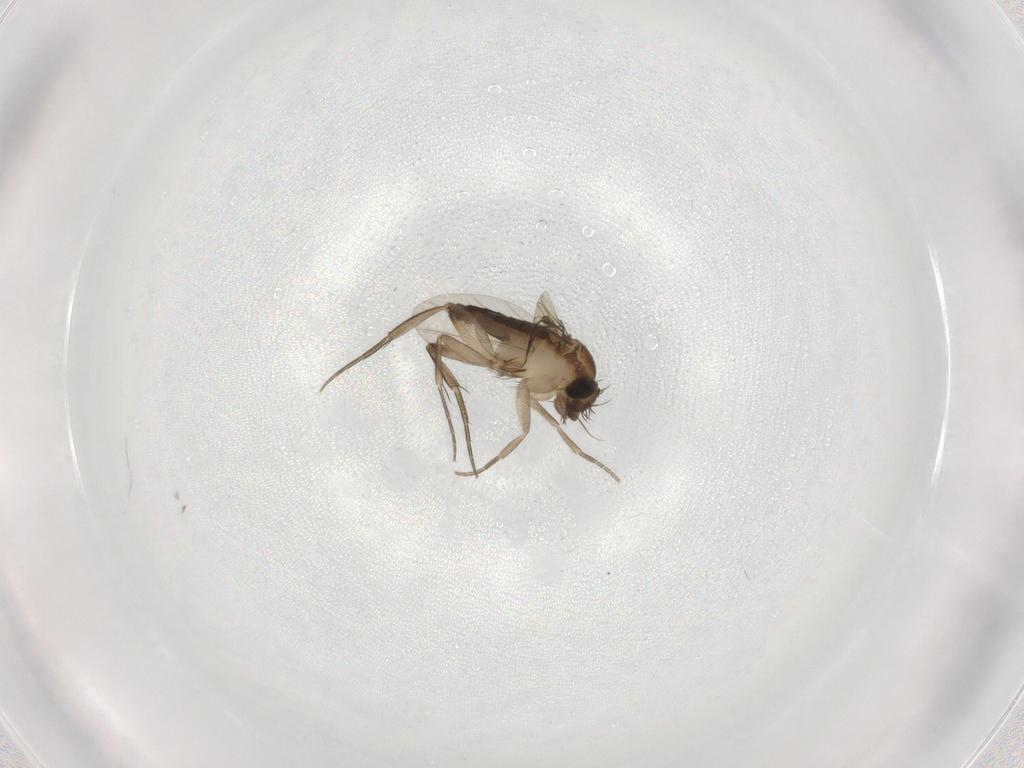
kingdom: Animalia
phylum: Arthropoda
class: Insecta
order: Diptera
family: Phoridae
